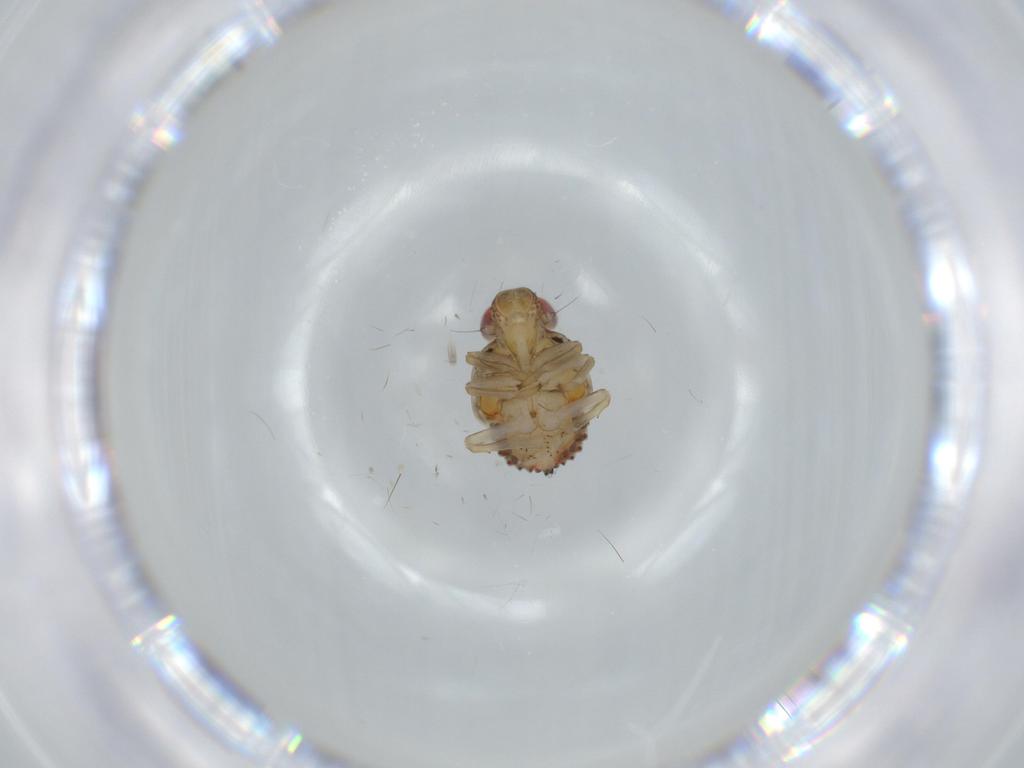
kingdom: Animalia
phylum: Arthropoda
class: Insecta
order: Hemiptera
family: Issidae
